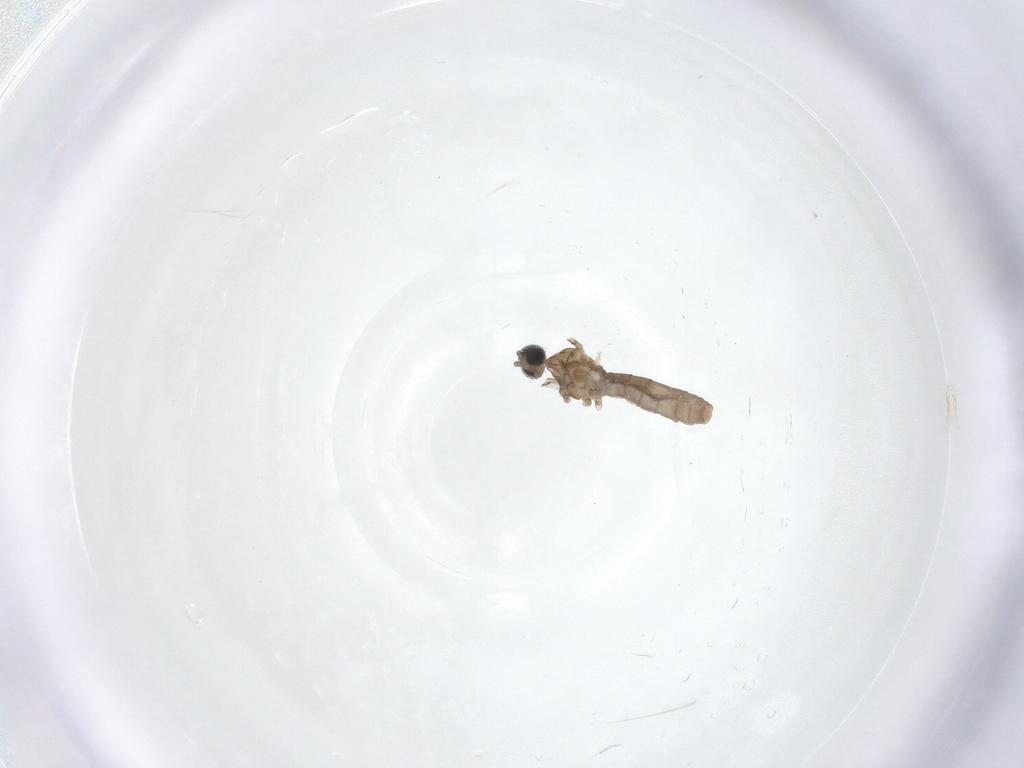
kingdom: Animalia
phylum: Arthropoda
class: Insecta
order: Diptera
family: Cecidomyiidae
